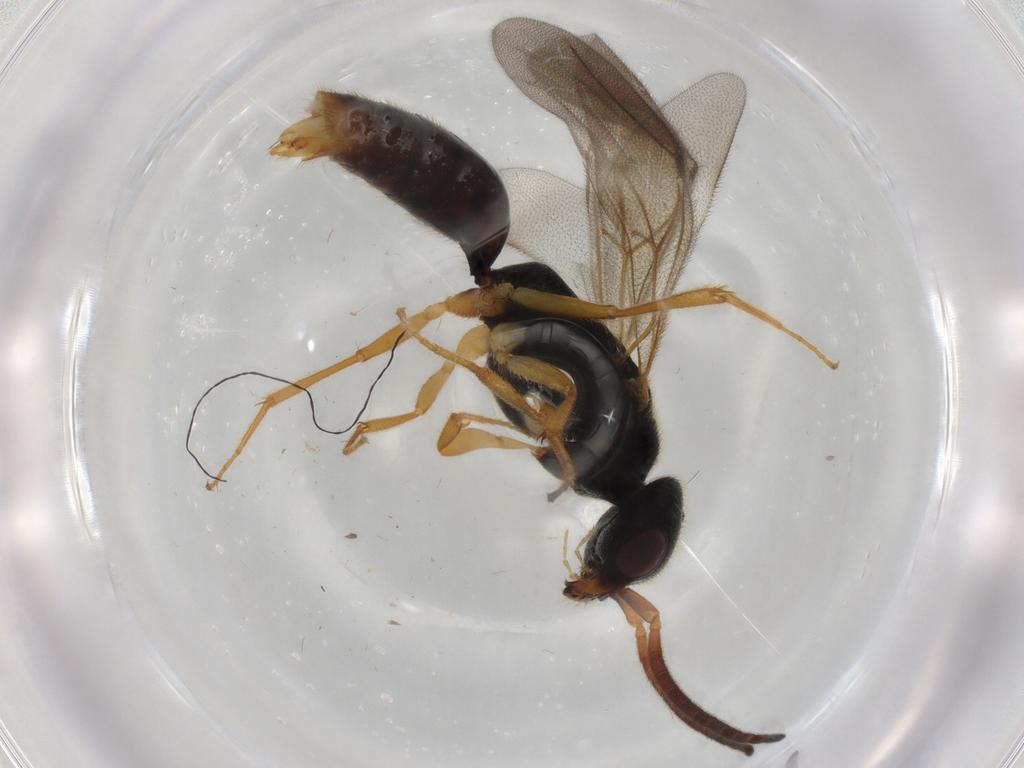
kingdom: Animalia
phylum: Arthropoda
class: Insecta
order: Hymenoptera
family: Bethylidae
